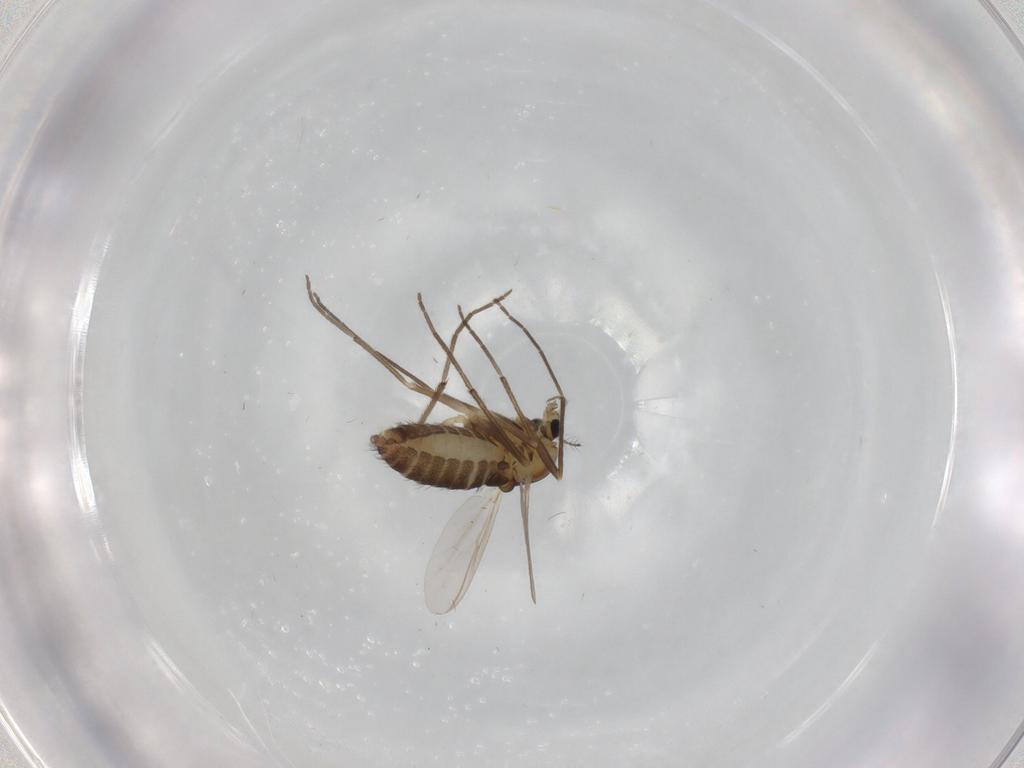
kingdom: Animalia
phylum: Arthropoda
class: Insecta
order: Diptera
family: Chironomidae
